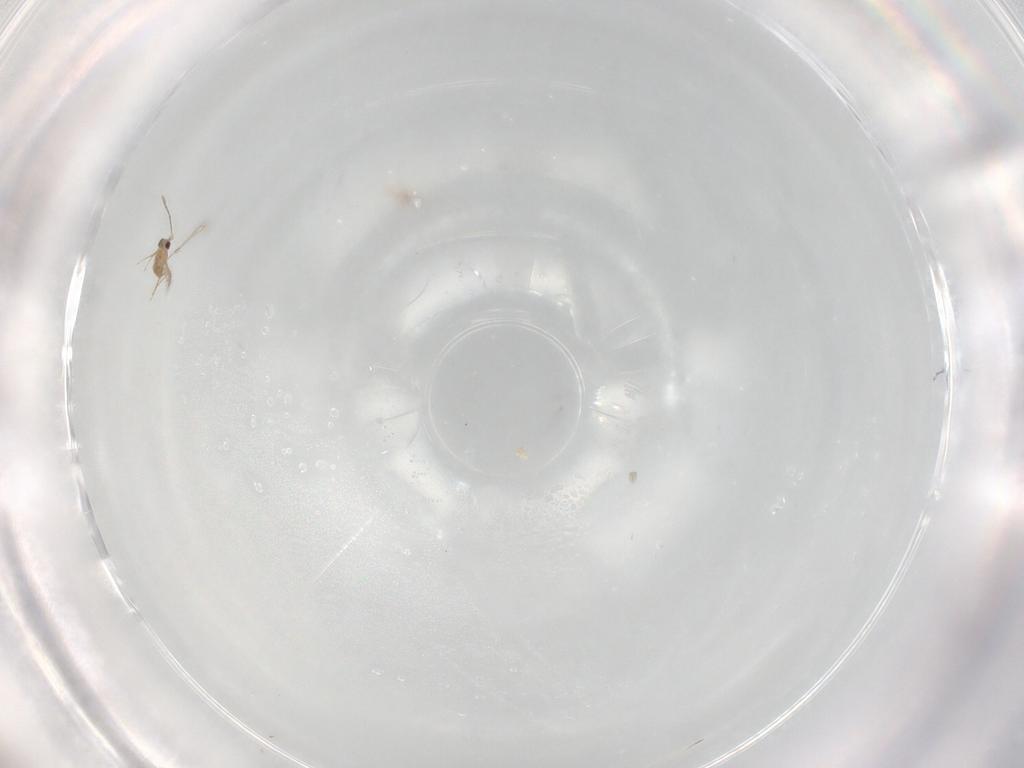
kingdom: Animalia
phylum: Arthropoda
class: Insecta
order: Hymenoptera
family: Mymaridae
